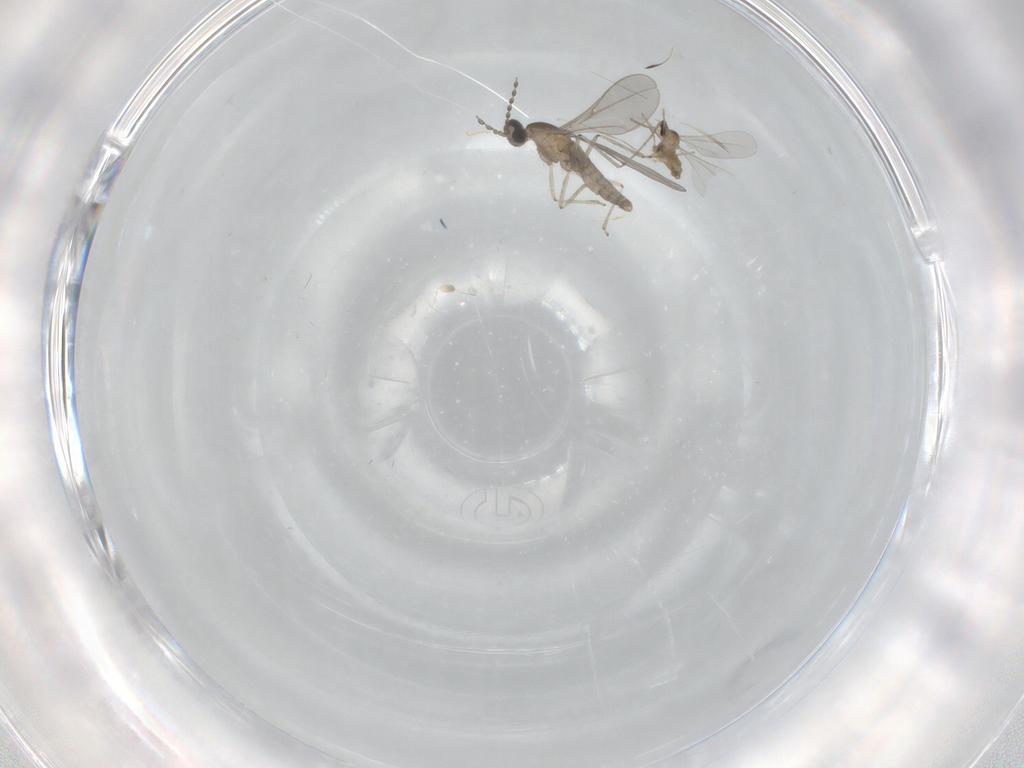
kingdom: Animalia
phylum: Arthropoda
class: Insecta
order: Diptera
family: Cecidomyiidae
